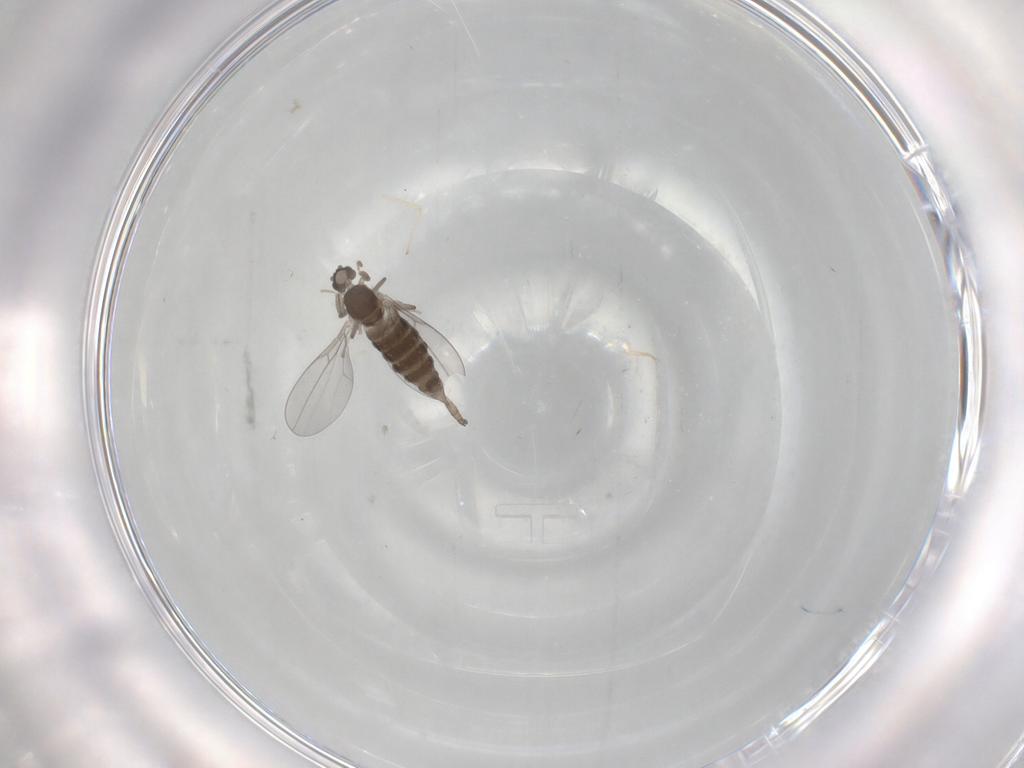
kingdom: Animalia
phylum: Arthropoda
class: Insecta
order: Diptera
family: Cecidomyiidae
